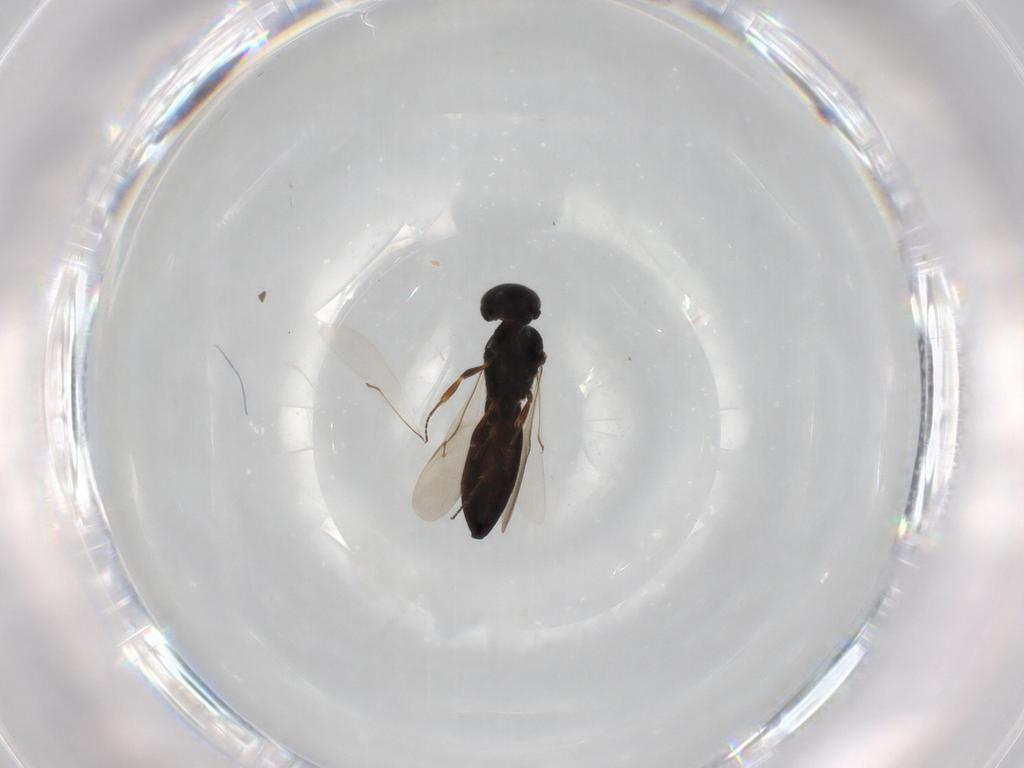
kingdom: Animalia
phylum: Arthropoda
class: Insecta
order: Hymenoptera
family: Scelionidae
